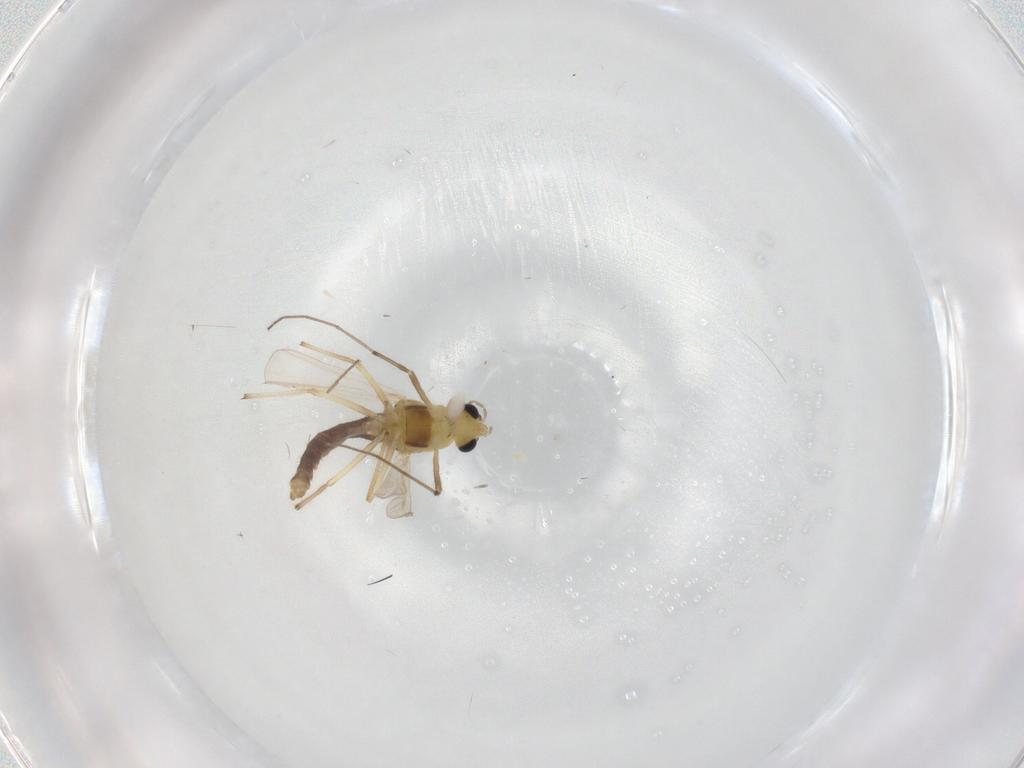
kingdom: Animalia
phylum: Arthropoda
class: Insecta
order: Diptera
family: Chironomidae
